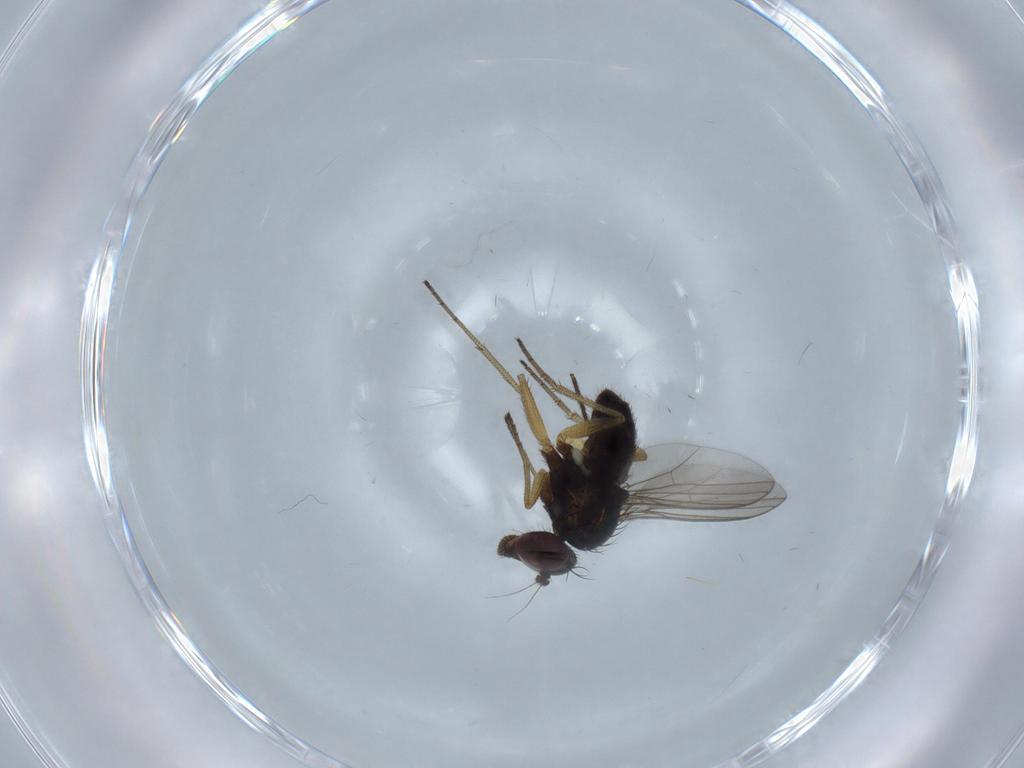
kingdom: Animalia
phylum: Arthropoda
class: Insecta
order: Diptera
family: Dolichopodidae
